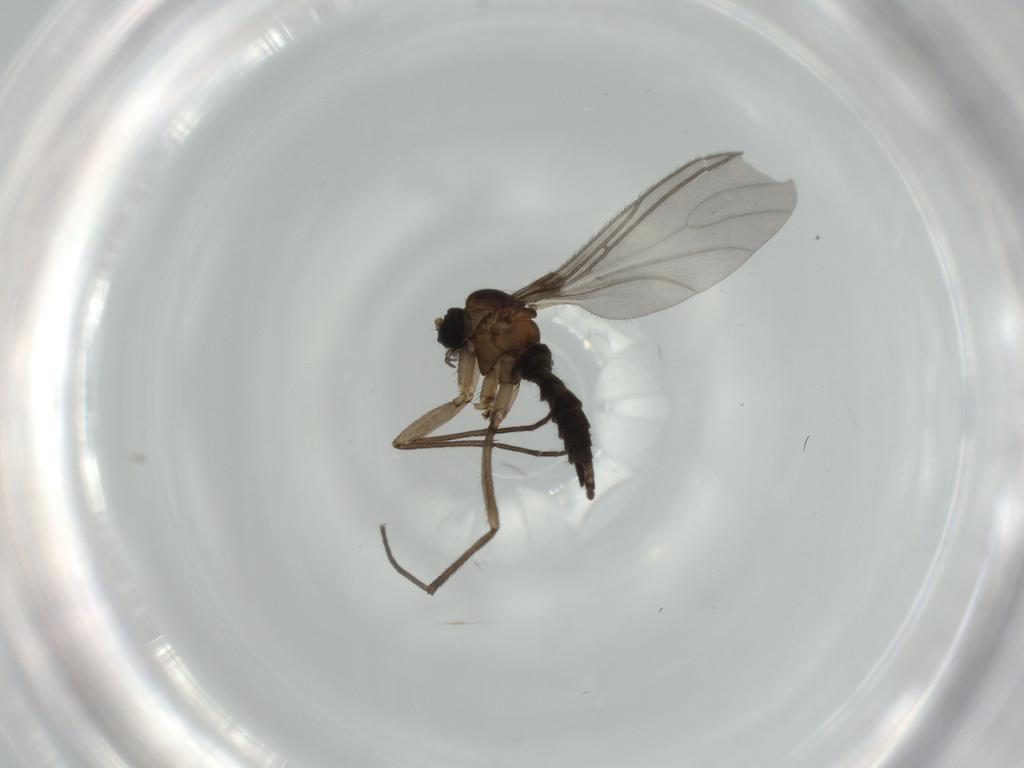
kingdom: Animalia
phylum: Arthropoda
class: Insecta
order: Diptera
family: Sciaridae
